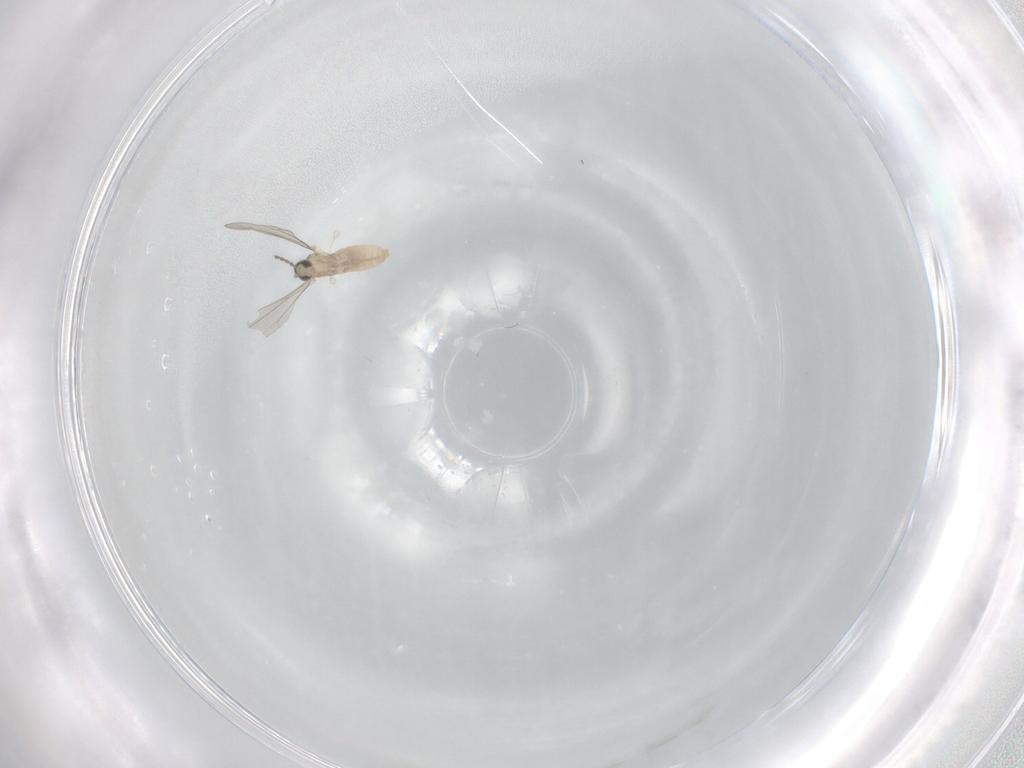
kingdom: Animalia
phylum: Arthropoda
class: Insecta
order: Diptera
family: Cecidomyiidae
